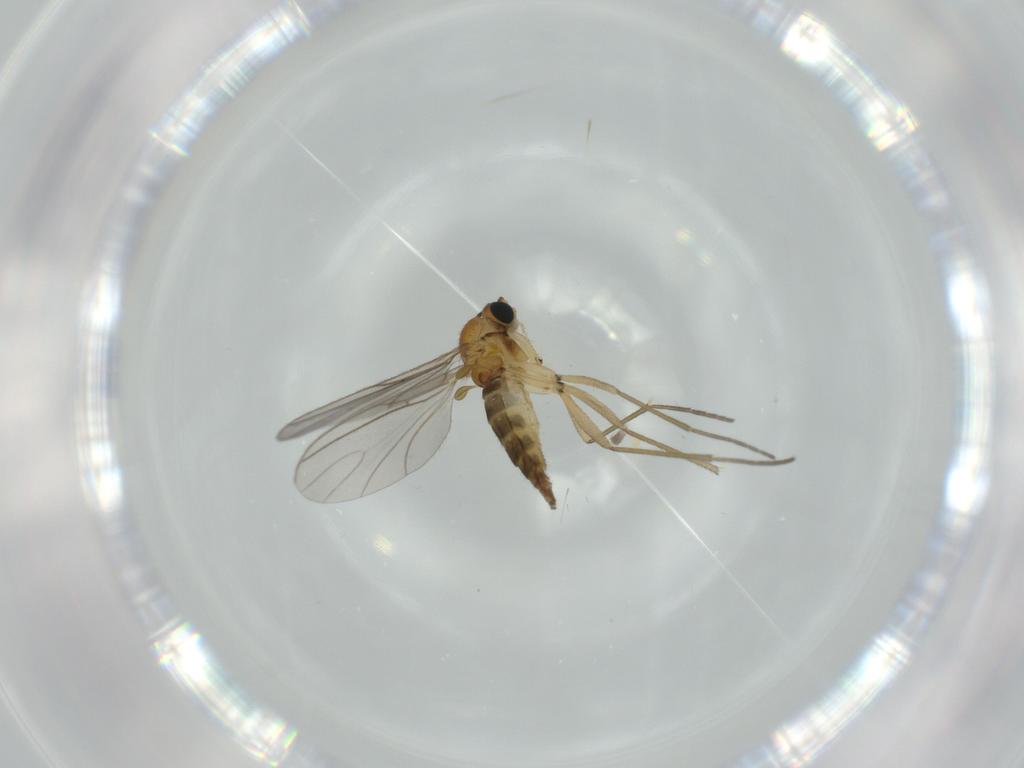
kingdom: Animalia
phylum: Arthropoda
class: Insecta
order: Diptera
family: Sciaridae
